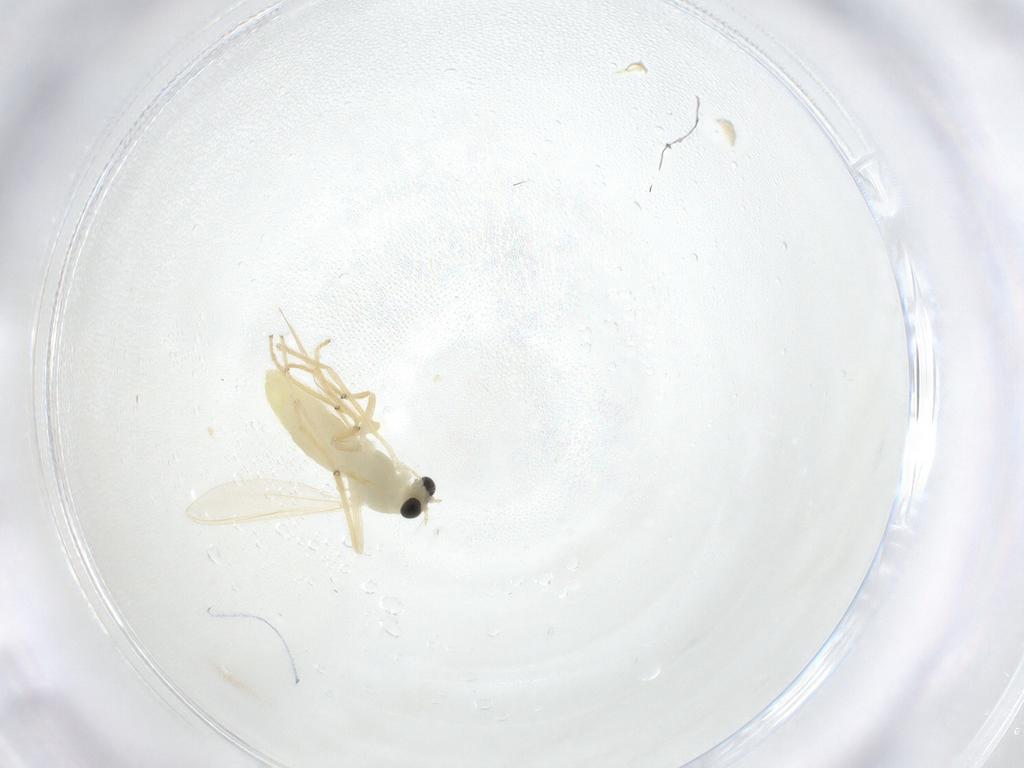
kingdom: Animalia
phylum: Arthropoda
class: Insecta
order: Diptera
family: Chironomidae
